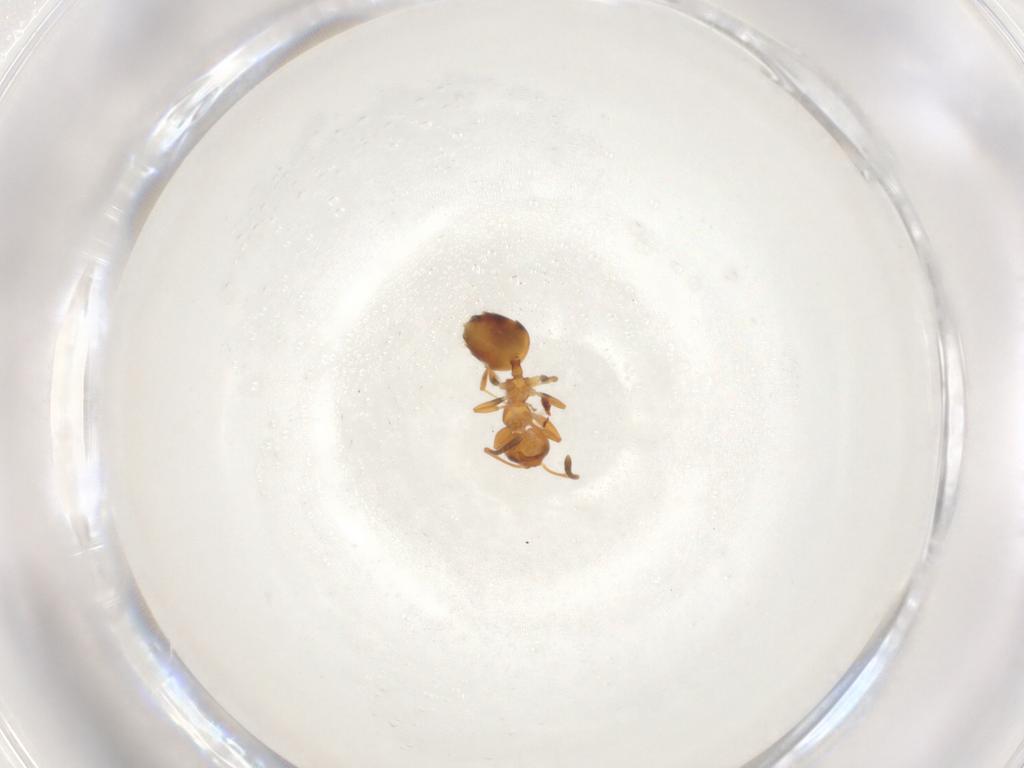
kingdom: Animalia
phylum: Arthropoda
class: Insecta
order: Hymenoptera
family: Formicidae
